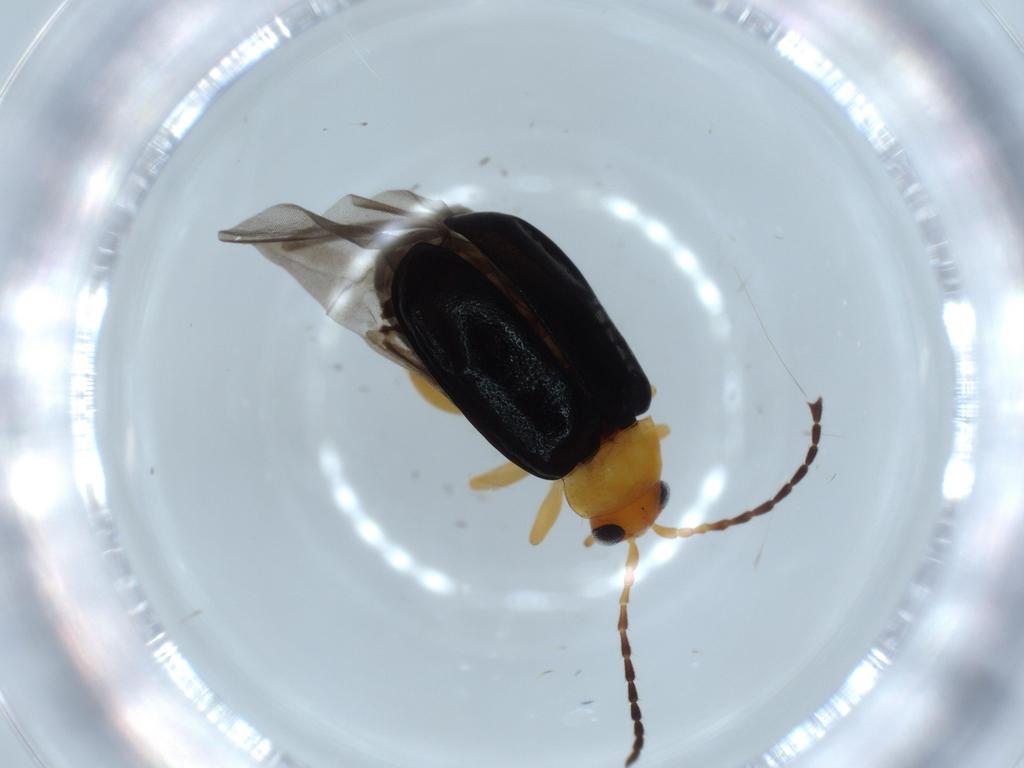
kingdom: Animalia
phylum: Arthropoda
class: Insecta
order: Coleoptera
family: Chrysomelidae
